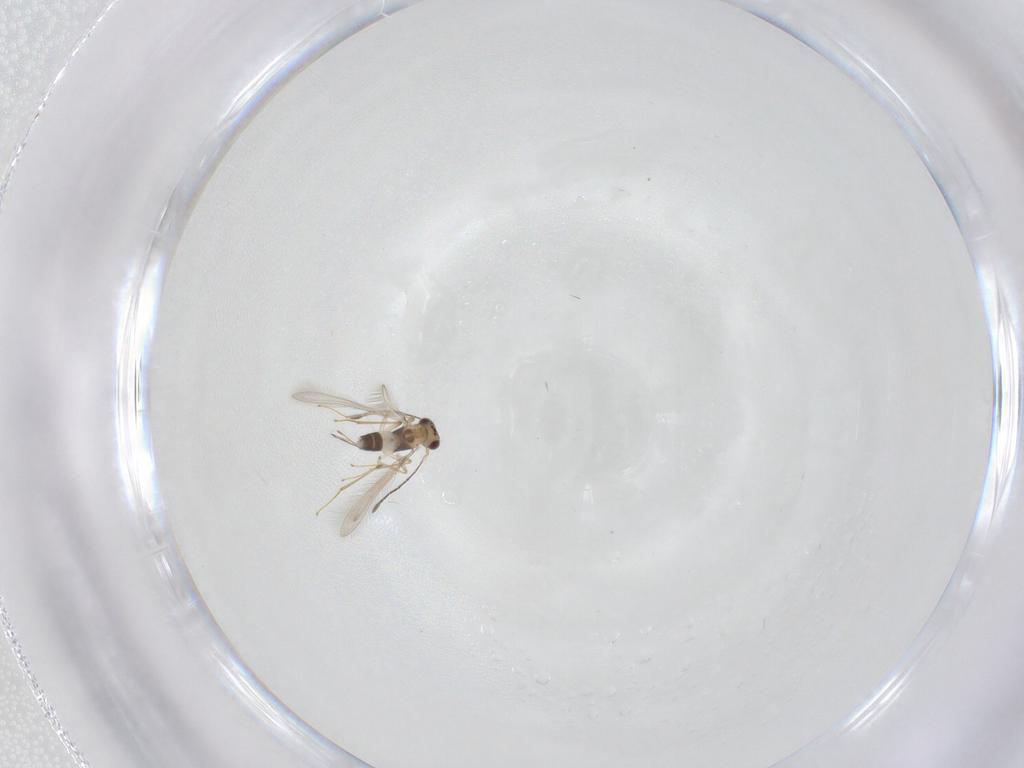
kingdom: Animalia
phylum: Arthropoda
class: Insecta
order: Hymenoptera
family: Mymaridae
